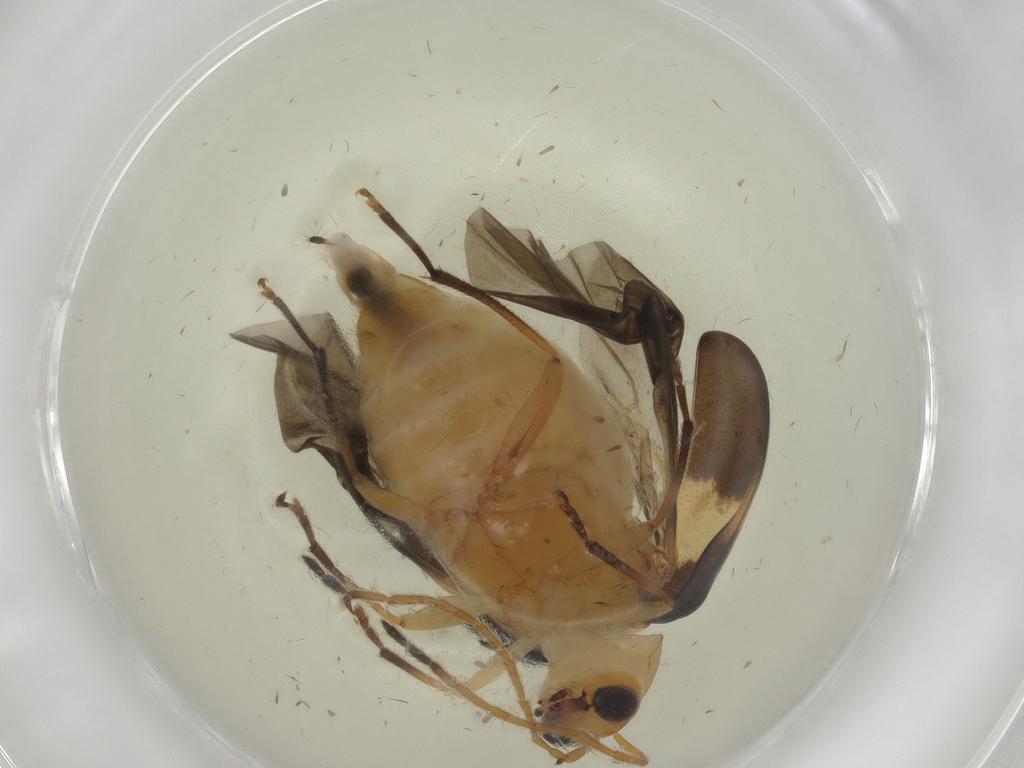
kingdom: Animalia
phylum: Arthropoda
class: Insecta
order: Coleoptera
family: Chrysomelidae
